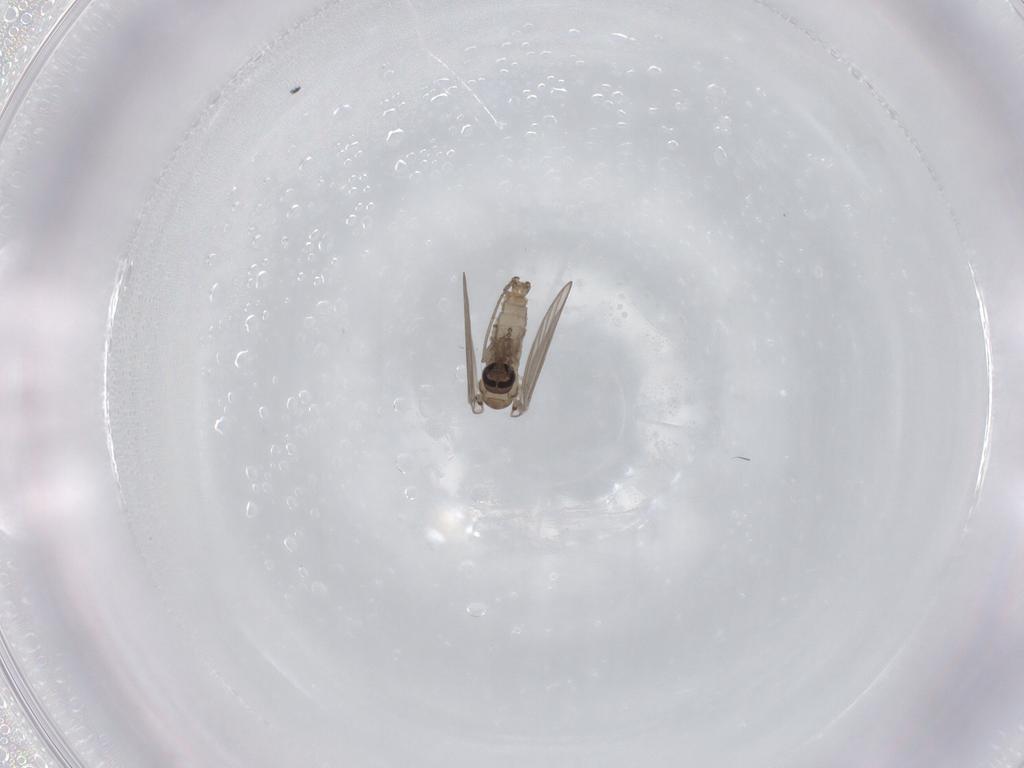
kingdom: Animalia
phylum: Arthropoda
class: Insecta
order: Diptera
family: Psychodidae
